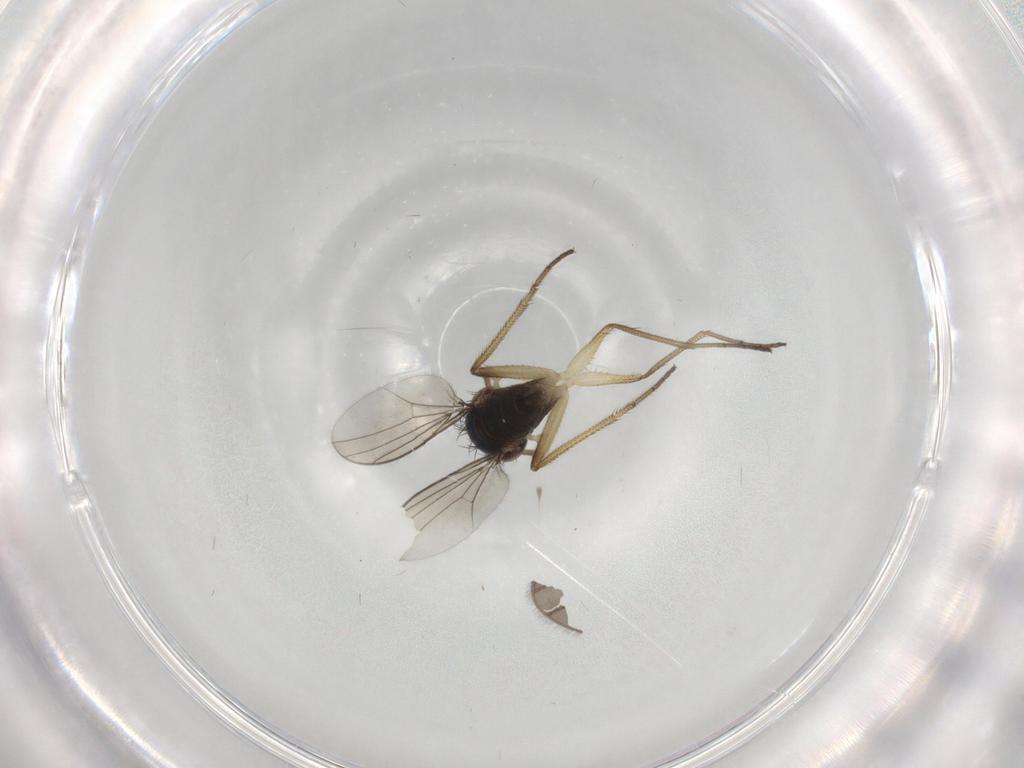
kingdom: Animalia
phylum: Arthropoda
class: Insecta
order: Diptera
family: Dolichopodidae
